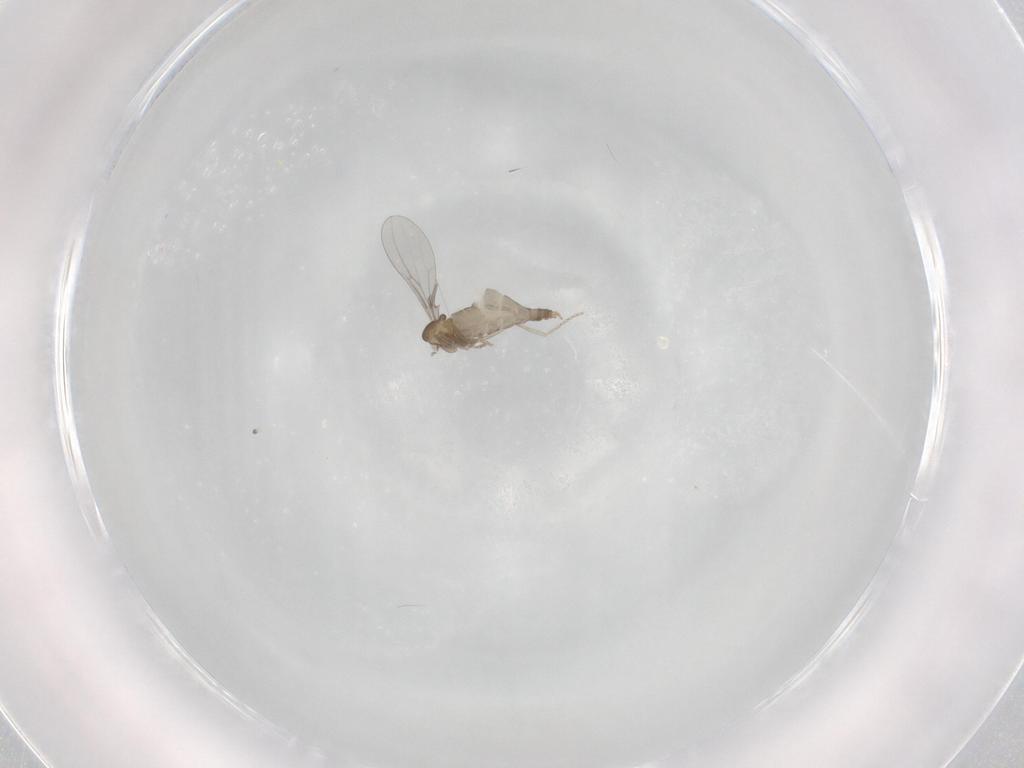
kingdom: Animalia
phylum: Arthropoda
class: Insecta
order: Diptera
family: Cecidomyiidae
